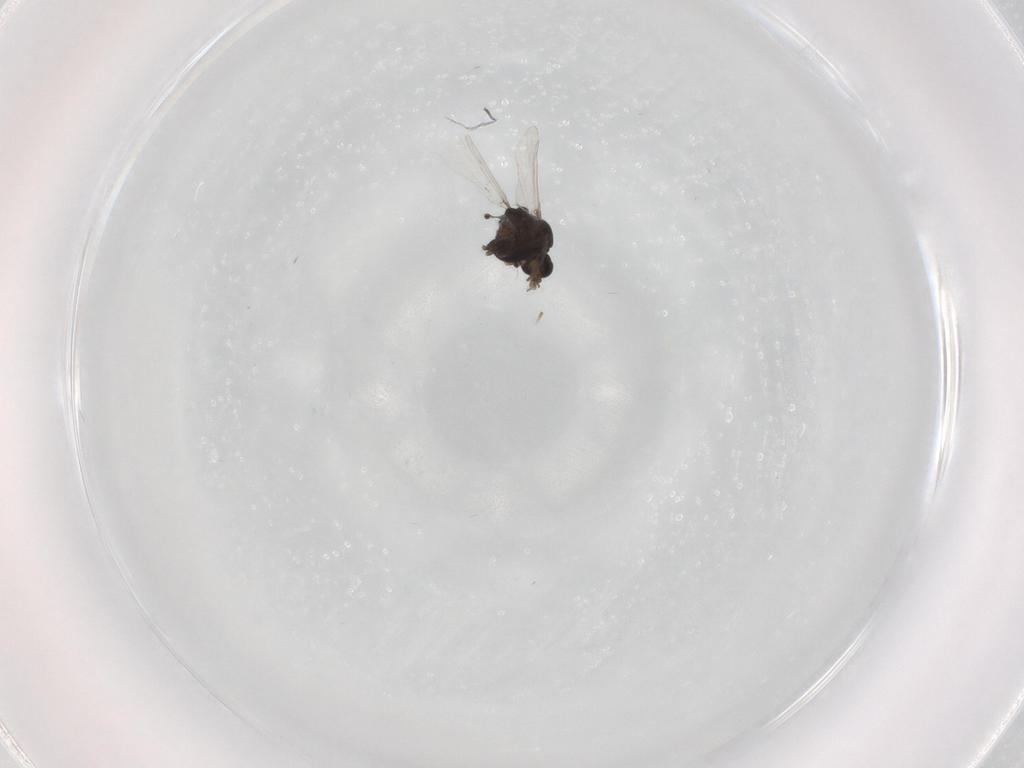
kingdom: Animalia
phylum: Arthropoda
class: Insecta
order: Diptera
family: Chironomidae
